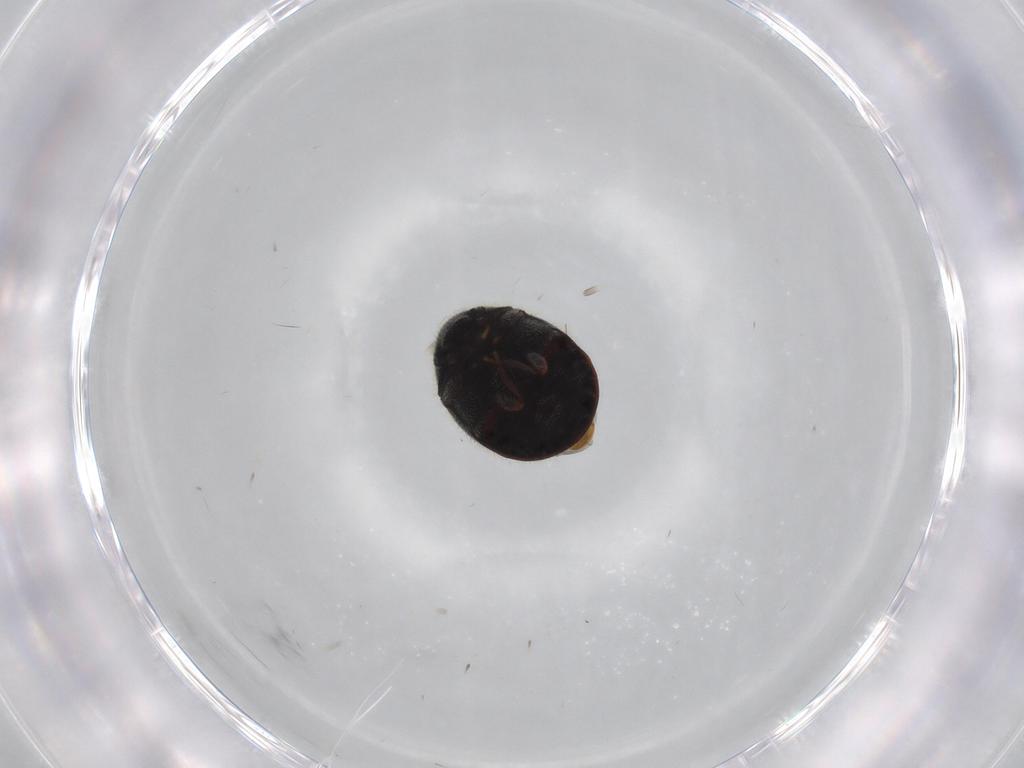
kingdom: Animalia
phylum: Arthropoda
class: Insecta
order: Coleoptera
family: Ptinidae
